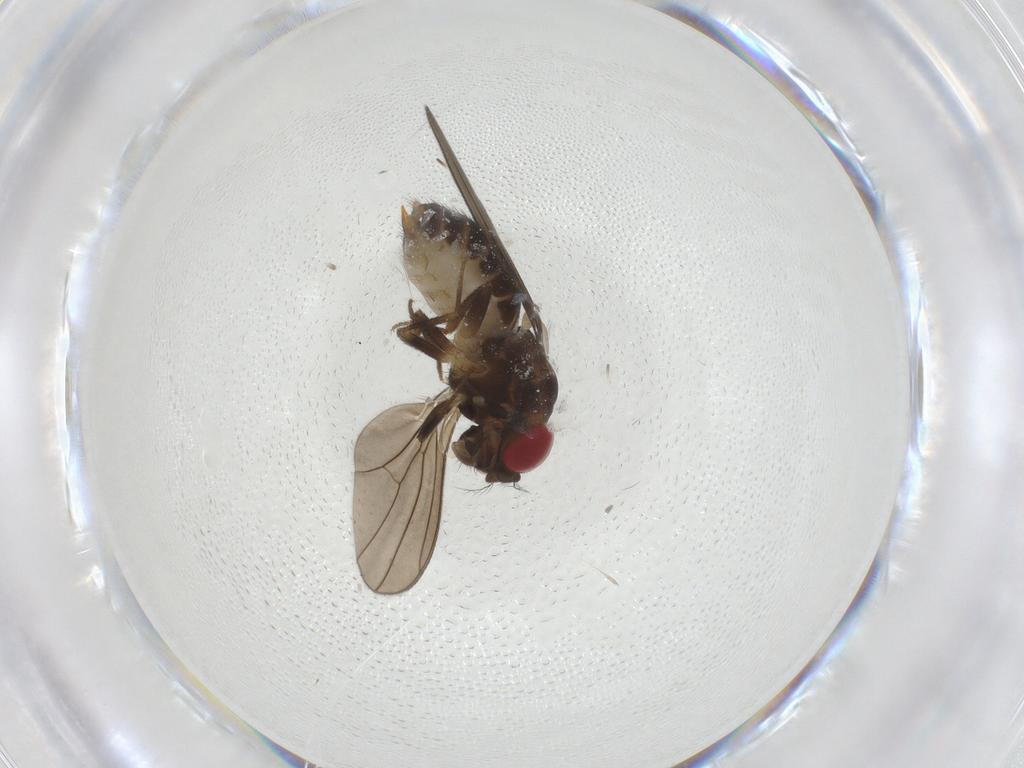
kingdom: Animalia
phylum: Arthropoda
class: Insecta
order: Diptera
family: Drosophilidae
